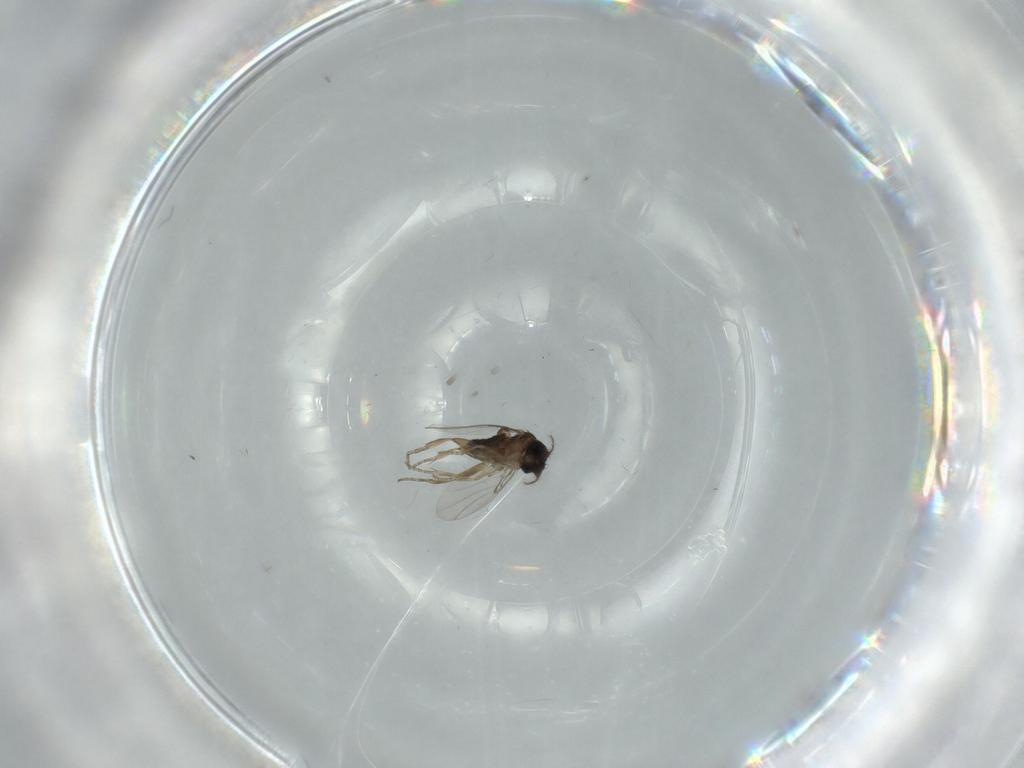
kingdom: Animalia
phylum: Arthropoda
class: Insecta
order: Diptera
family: Phoridae
